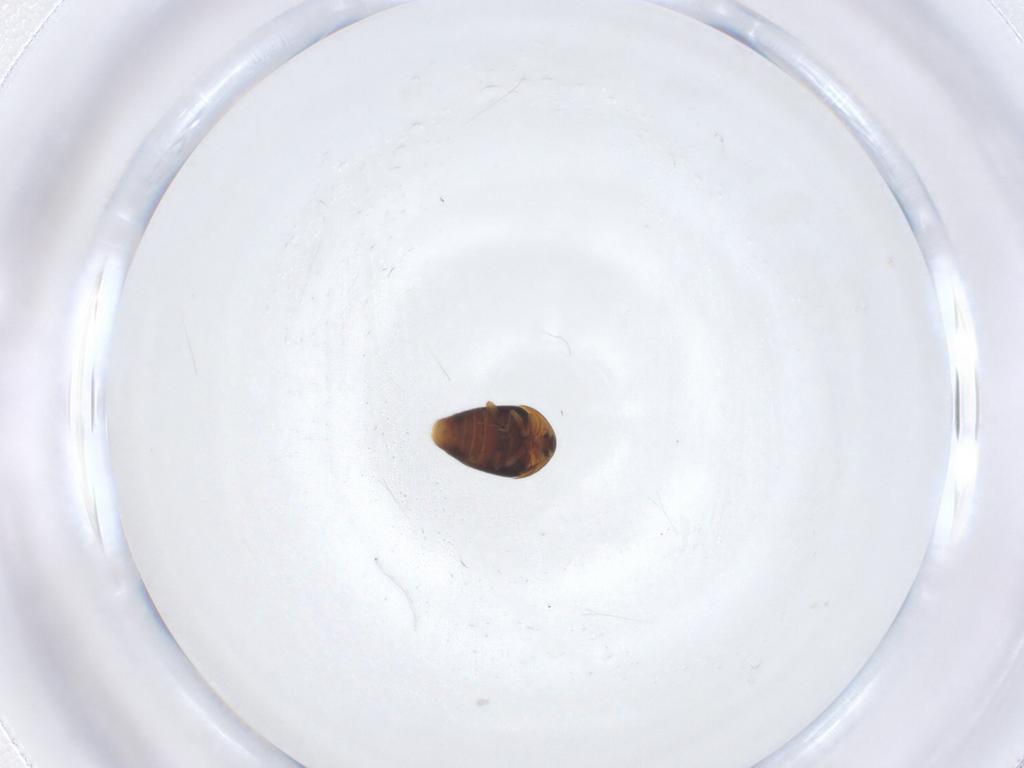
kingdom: Animalia
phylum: Arthropoda
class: Insecta
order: Coleoptera
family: Corylophidae
